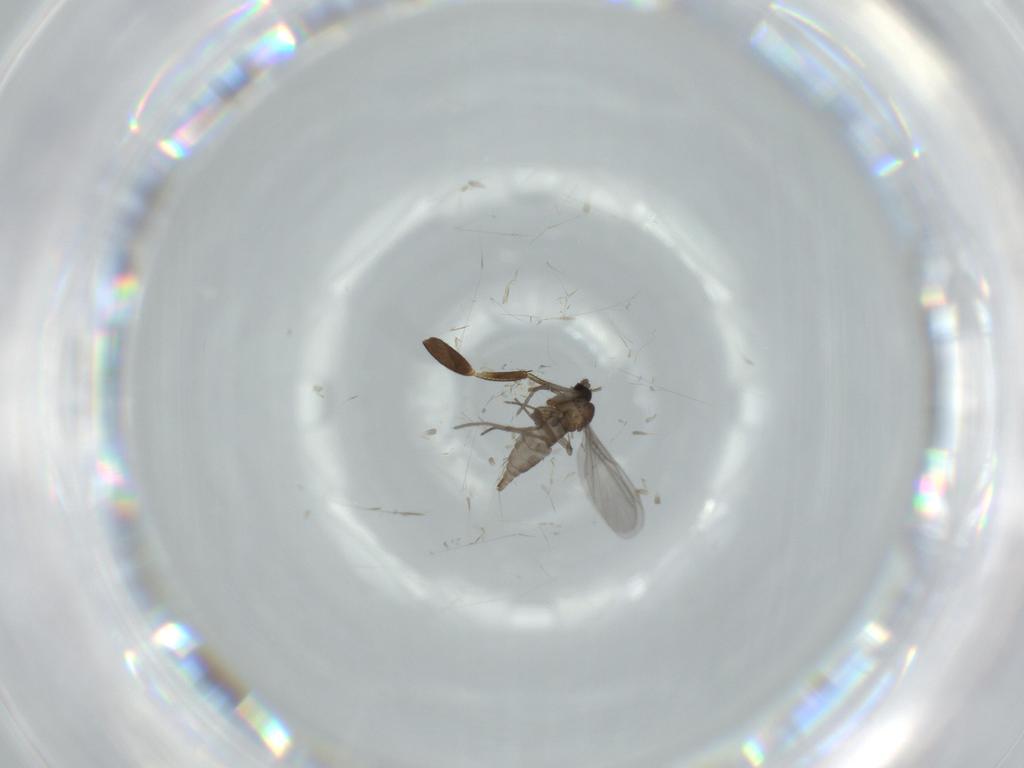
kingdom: Animalia
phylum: Arthropoda
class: Insecta
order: Diptera
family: Sciaridae
